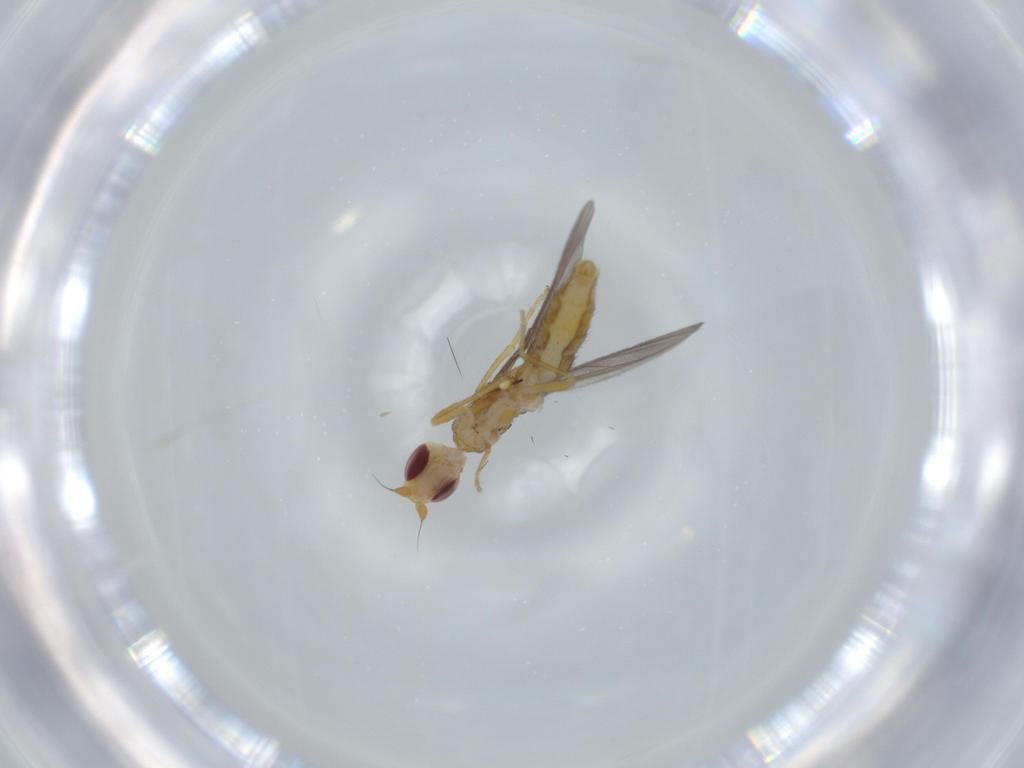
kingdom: Animalia
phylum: Arthropoda
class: Insecta
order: Diptera
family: Chloropidae
